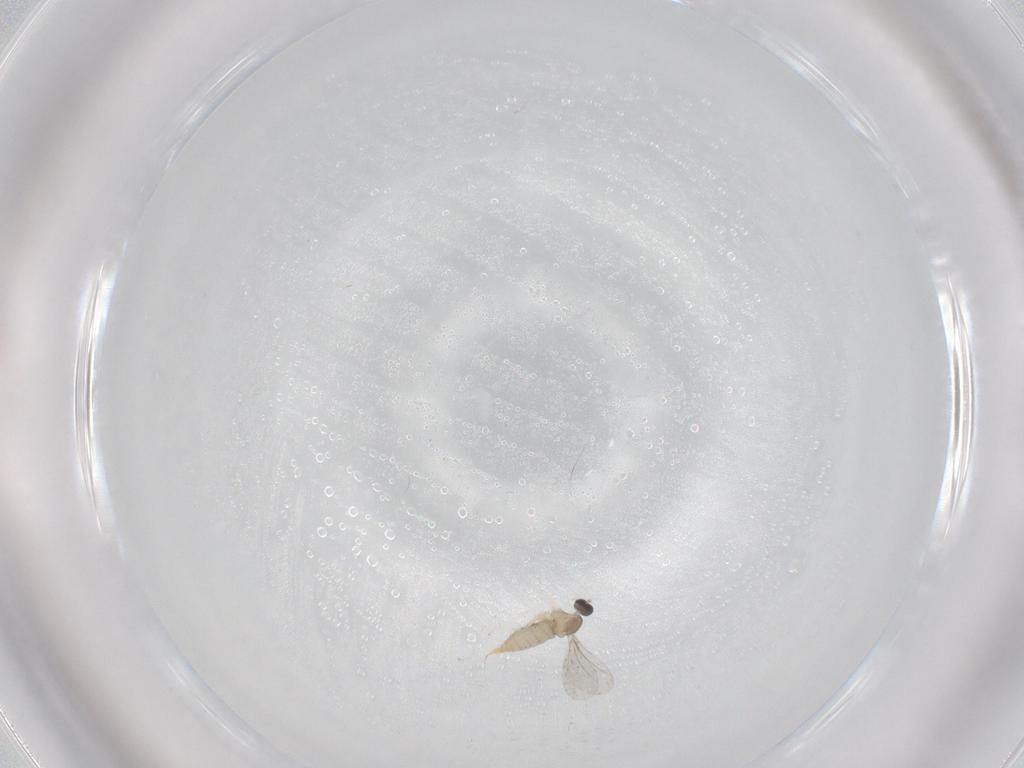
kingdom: Animalia
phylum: Arthropoda
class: Insecta
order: Diptera
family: Cecidomyiidae
